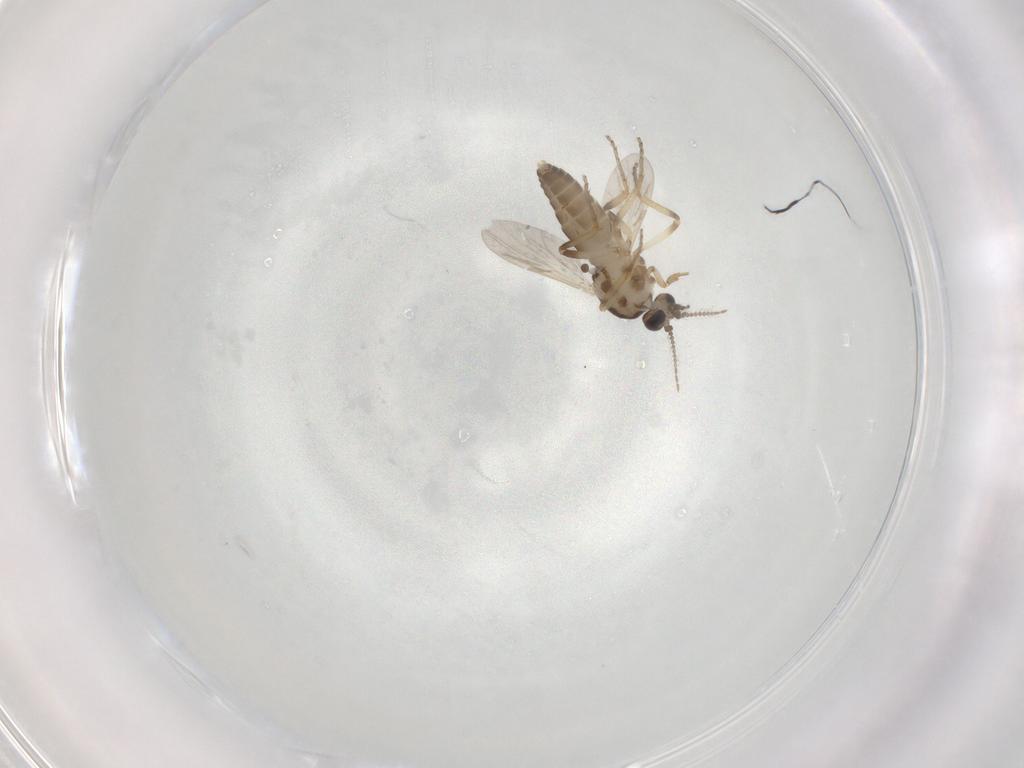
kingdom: Animalia
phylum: Arthropoda
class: Insecta
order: Diptera
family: Ceratopogonidae
